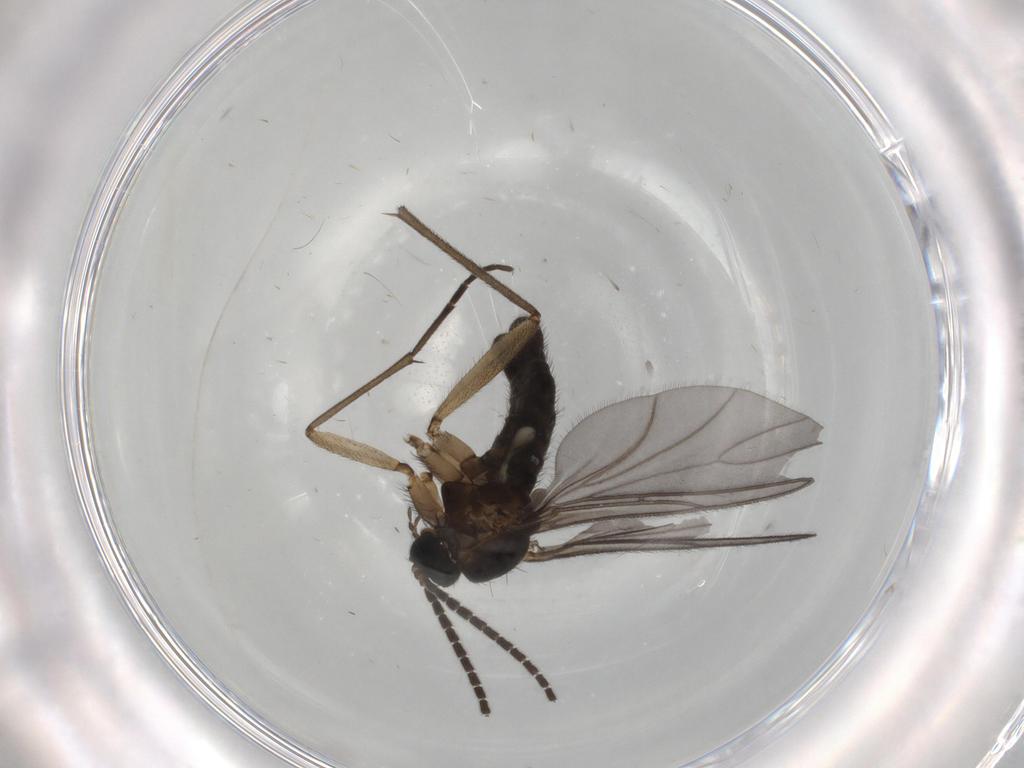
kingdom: Animalia
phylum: Arthropoda
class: Insecta
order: Diptera
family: Sciaridae
